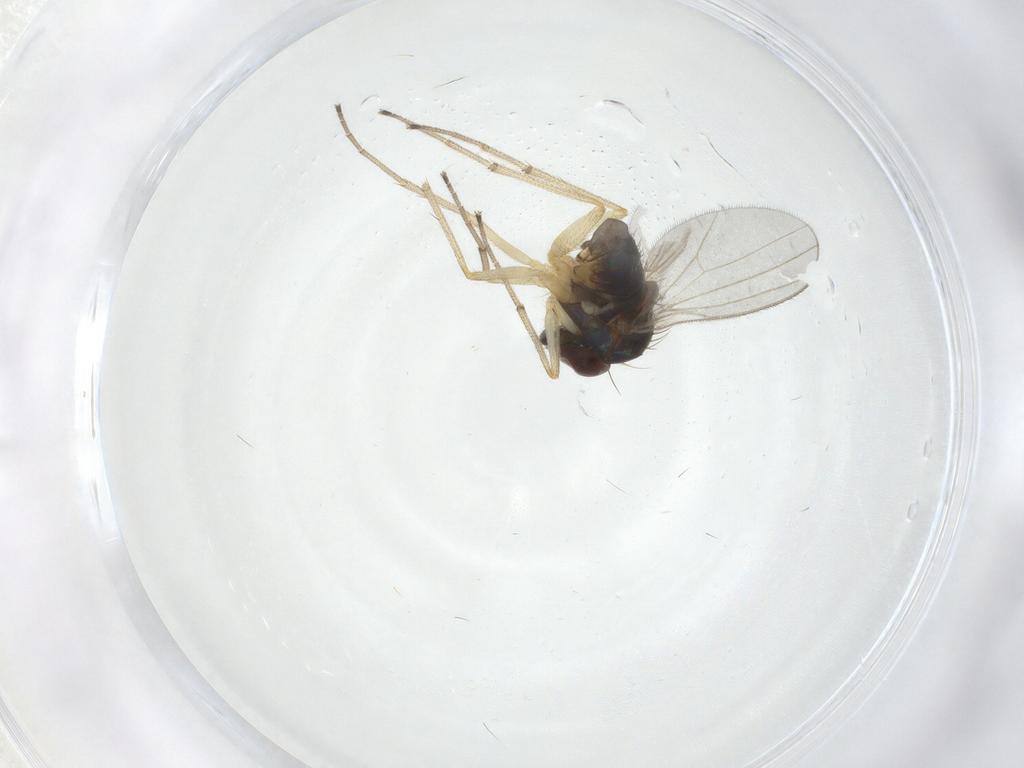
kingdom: Animalia
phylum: Arthropoda
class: Insecta
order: Diptera
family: Dolichopodidae
